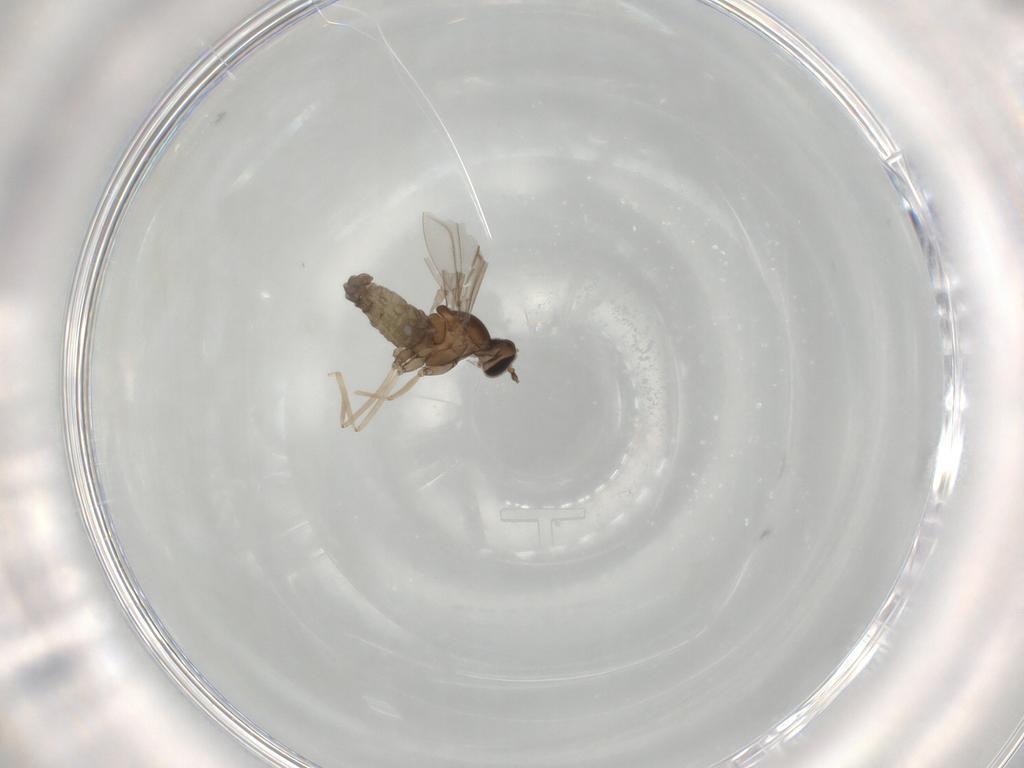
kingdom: Animalia
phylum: Arthropoda
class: Insecta
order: Diptera
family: Cecidomyiidae
